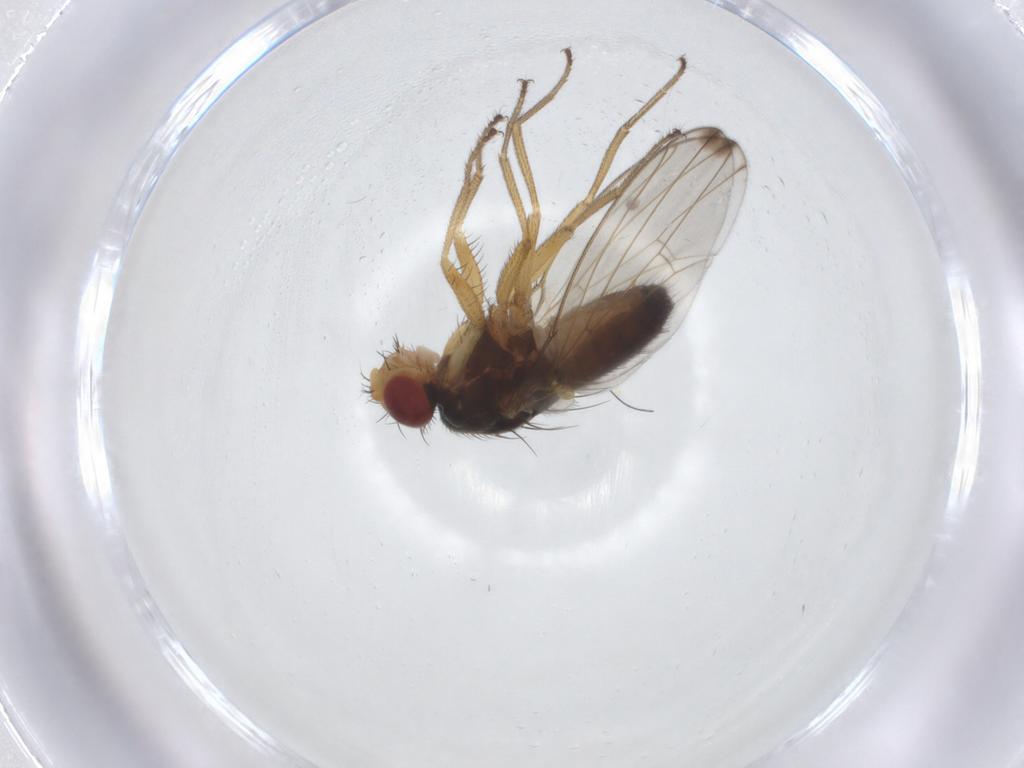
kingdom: Animalia
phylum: Arthropoda
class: Insecta
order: Diptera
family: Drosophilidae
